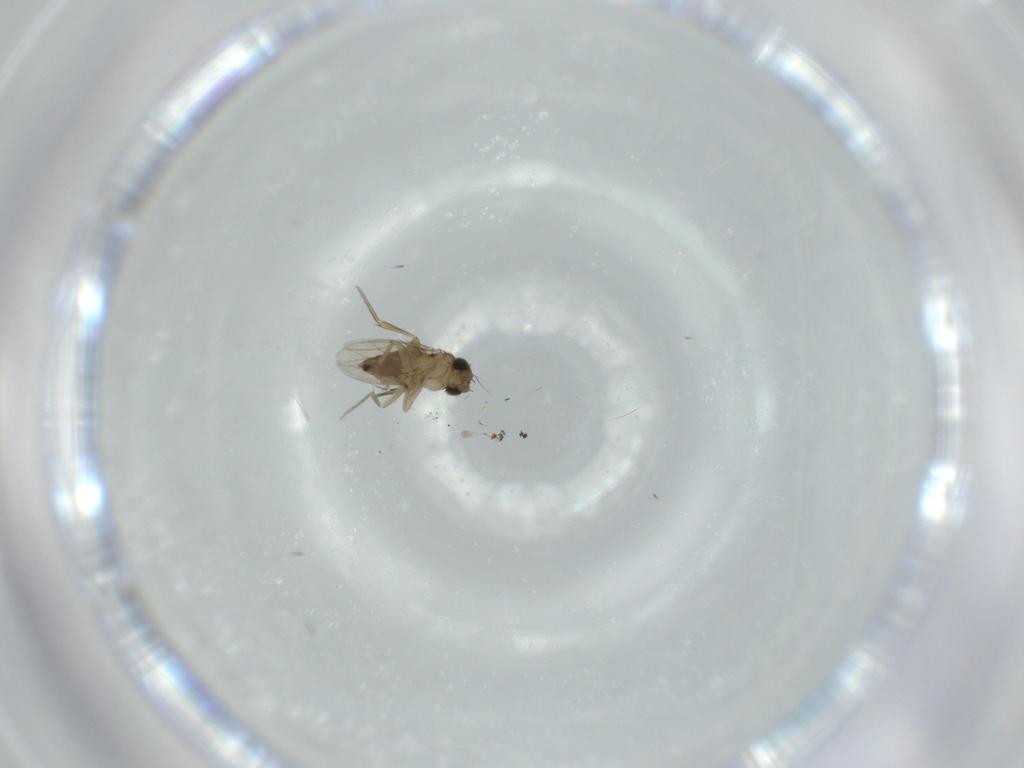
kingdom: Animalia
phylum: Arthropoda
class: Insecta
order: Diptera
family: Phoridae
